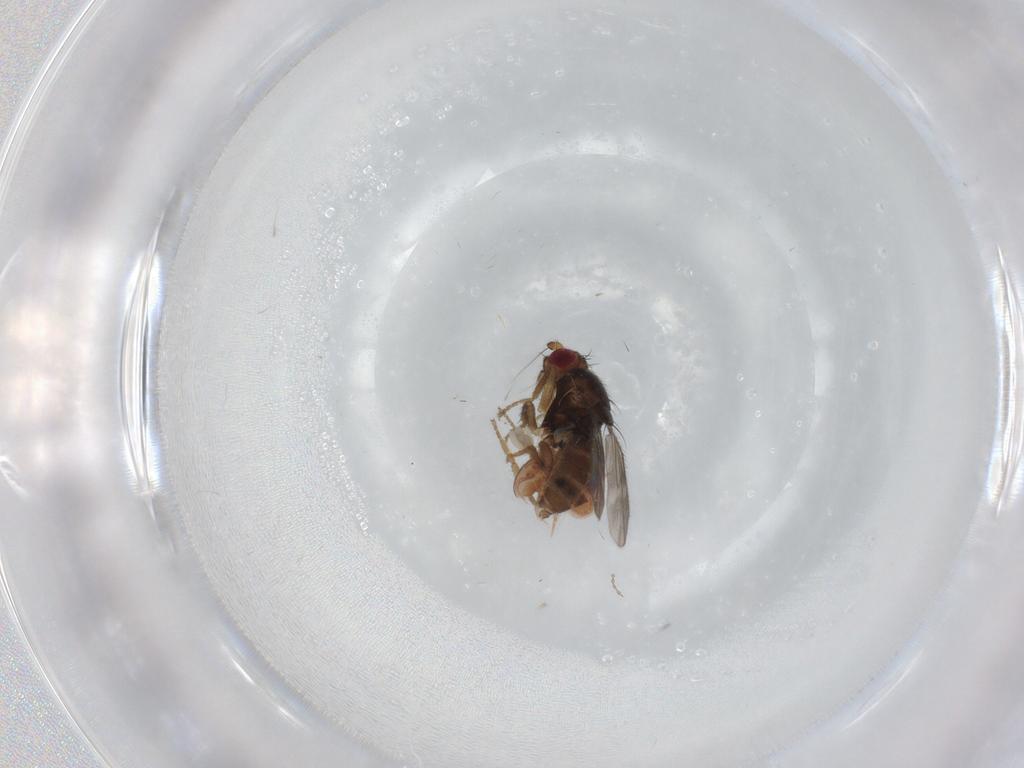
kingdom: Animalia
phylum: Arthropoda
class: Insecta
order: Diptera
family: Sphaeroceridae
